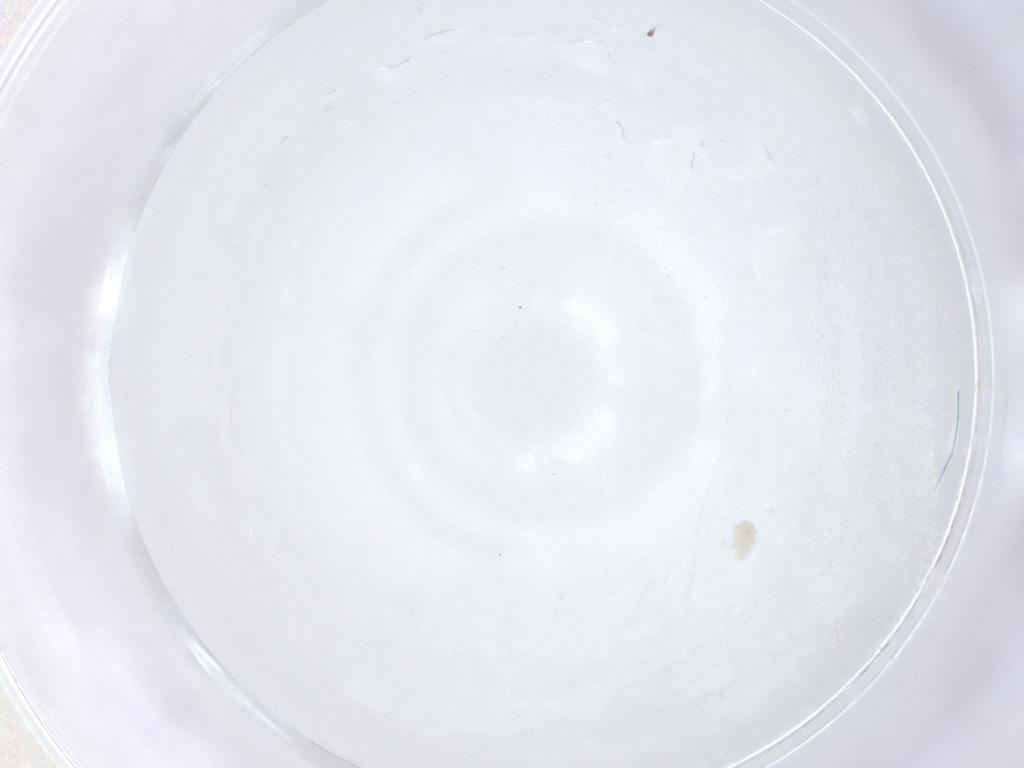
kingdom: Animalia
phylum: Arthropoda
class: Insecta
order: Diptera
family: Cecidomyiidae
